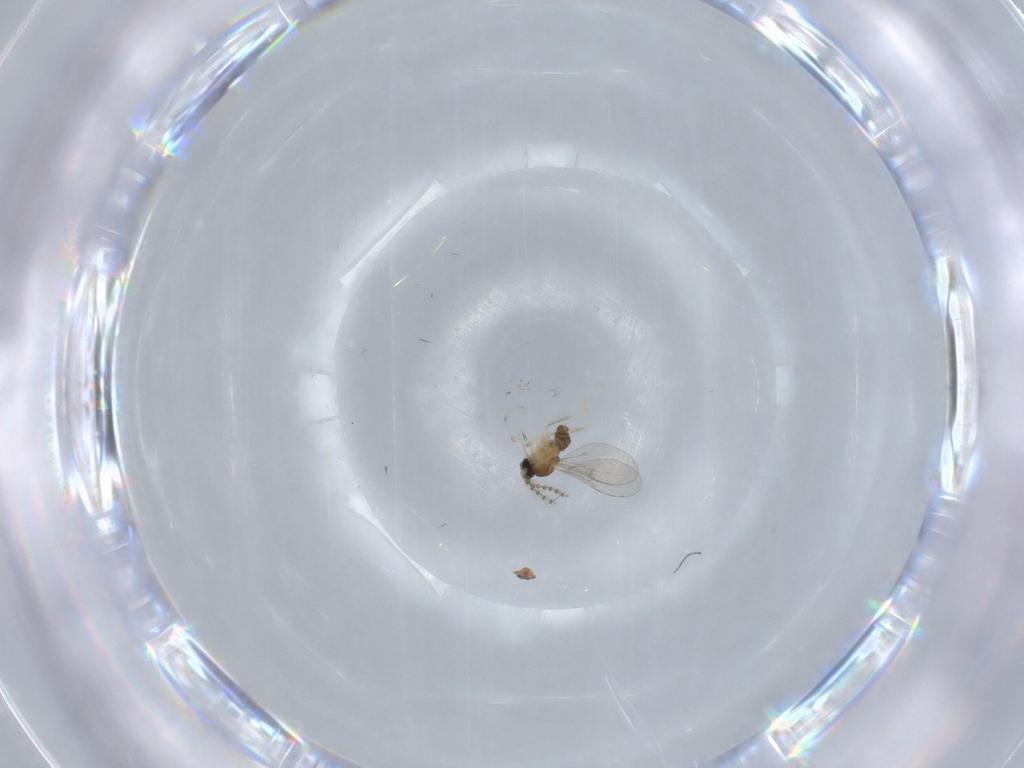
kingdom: Animalia
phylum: Arthropoda
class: Insecta
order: Diptera
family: Cecidomyiidae
